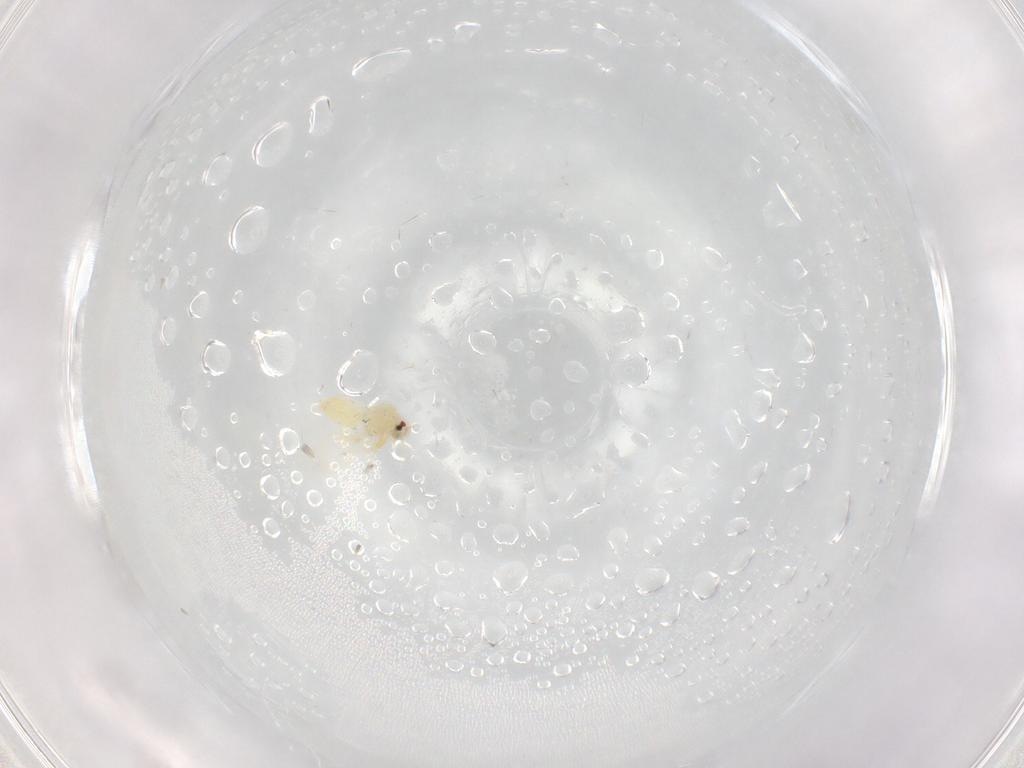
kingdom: Animalia
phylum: Arthropoda
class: Insecta
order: Hemiptera
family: Aleyrodidae
